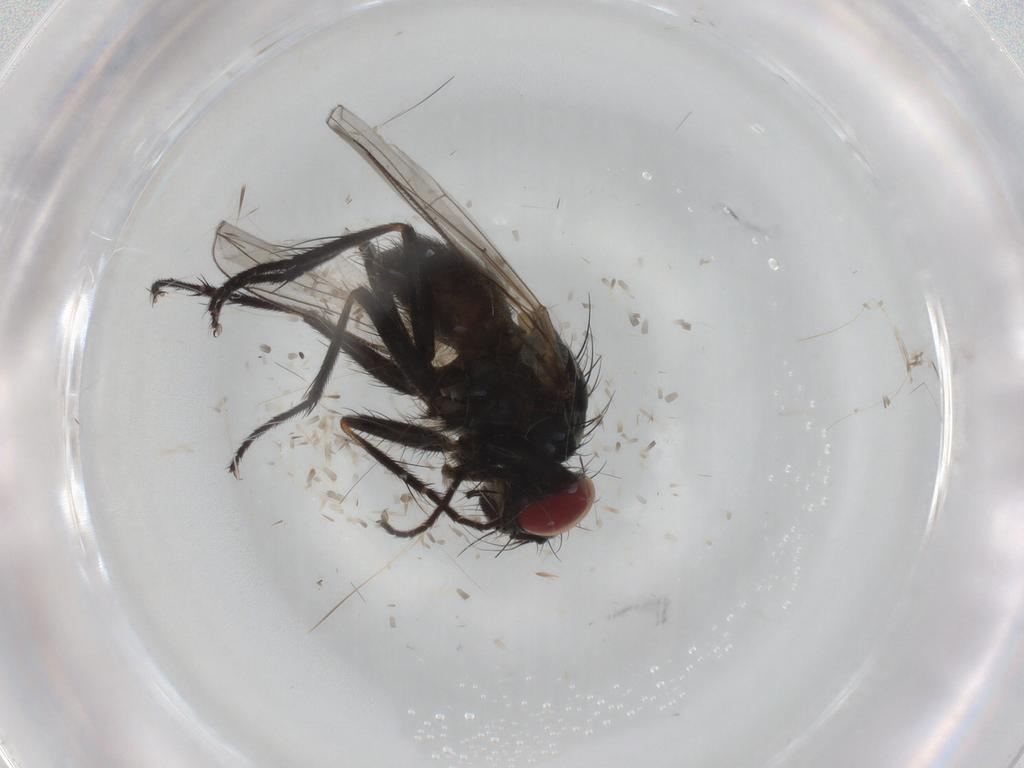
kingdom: Animalia
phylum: Arthropoda
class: Insecta
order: Diptera
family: Muscidae
